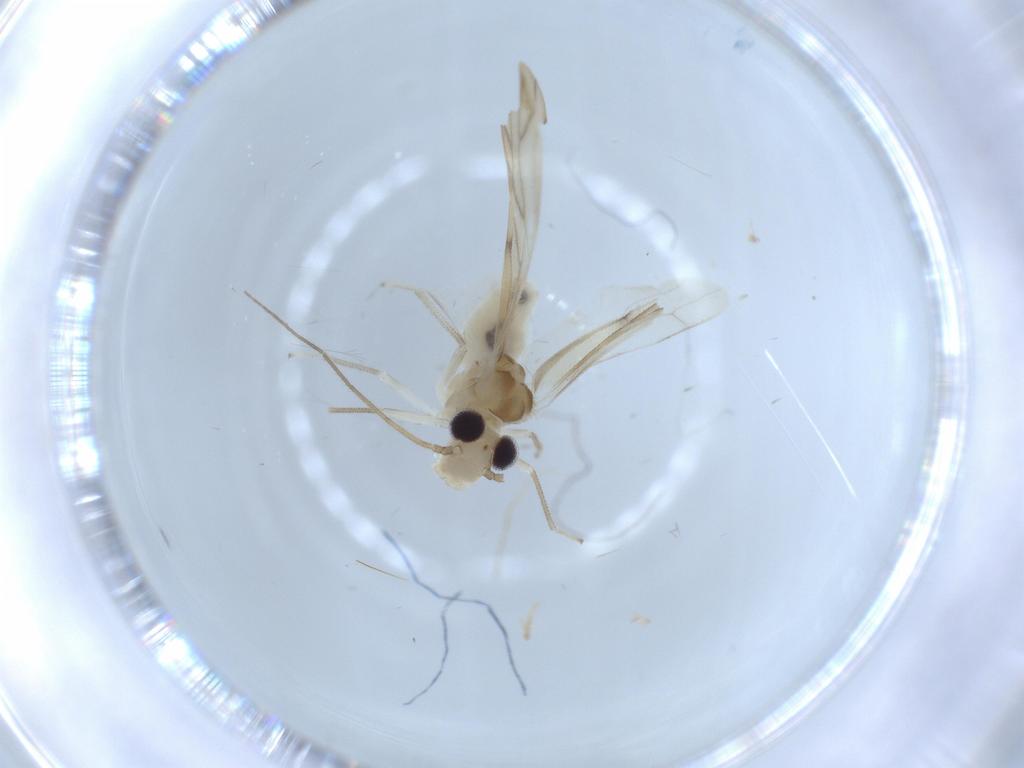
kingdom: Animalia
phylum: Arthropoda
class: Insecta
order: Psocodea
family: Caeciliusidae
